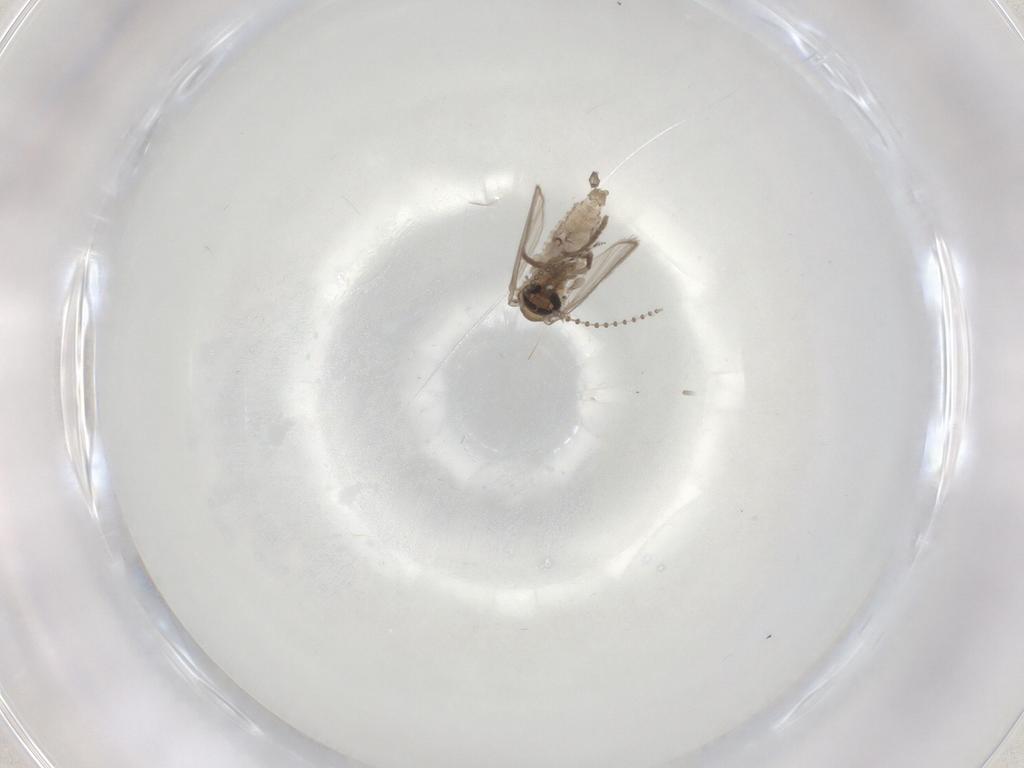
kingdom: Animalia
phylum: Arthropoda
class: Insecta
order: Diptera
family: Psychodidae
